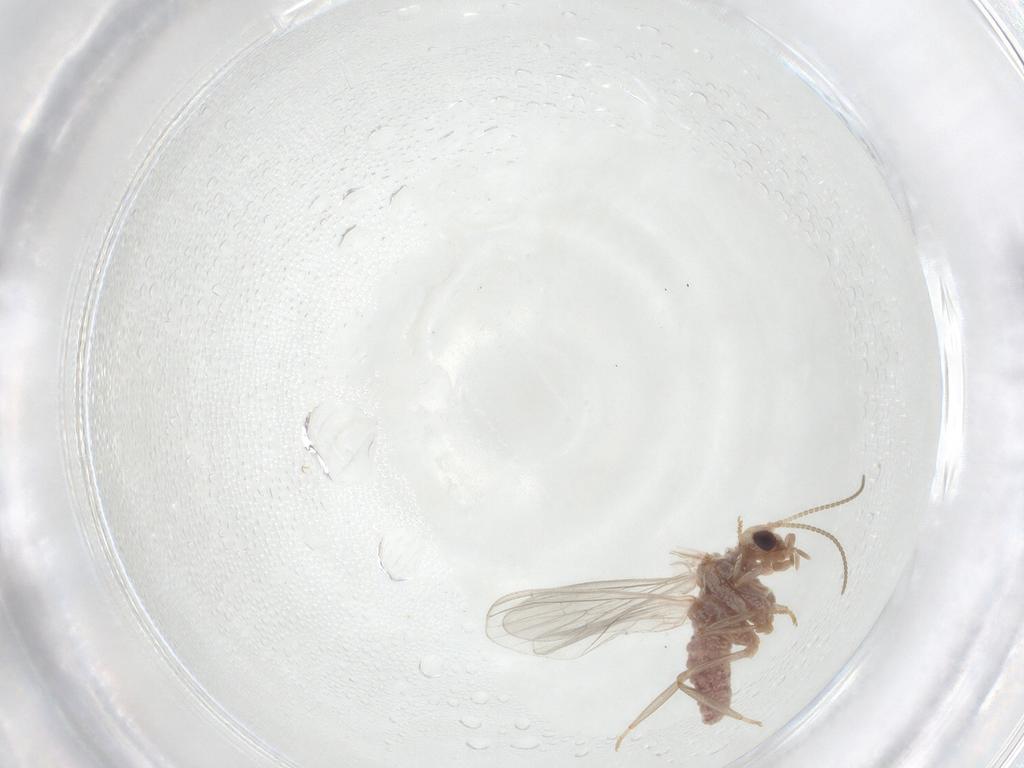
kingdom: Animalia
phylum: Arthropoda
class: Insecta
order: Neuroptera
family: Coniopterygidae
